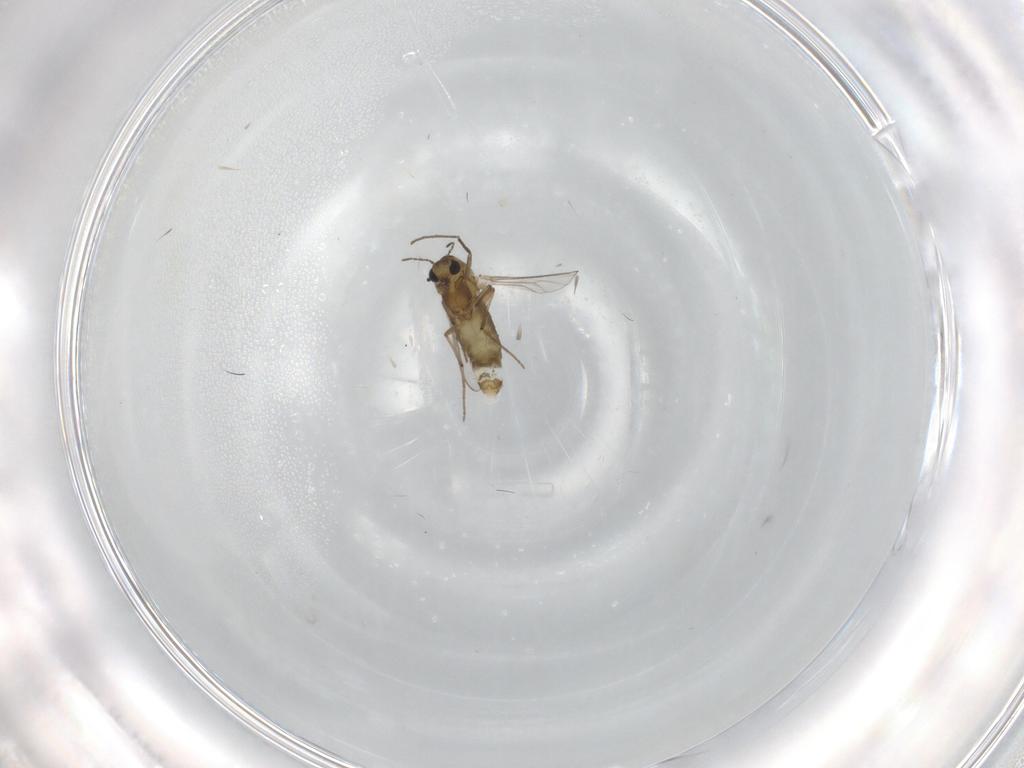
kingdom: Animalia
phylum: Arthropoda
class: Insecta
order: Diptera
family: Chironomidae
